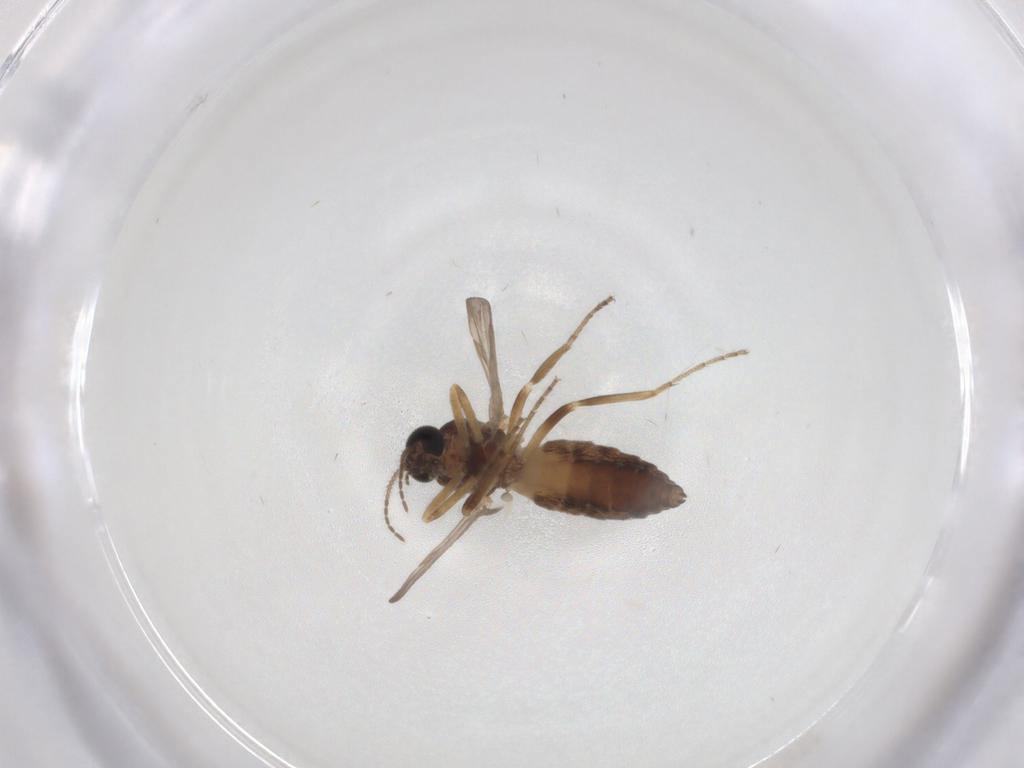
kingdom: Animalia
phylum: Arthropoda
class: Insecta
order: Diptera
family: Ceratopogonidae
